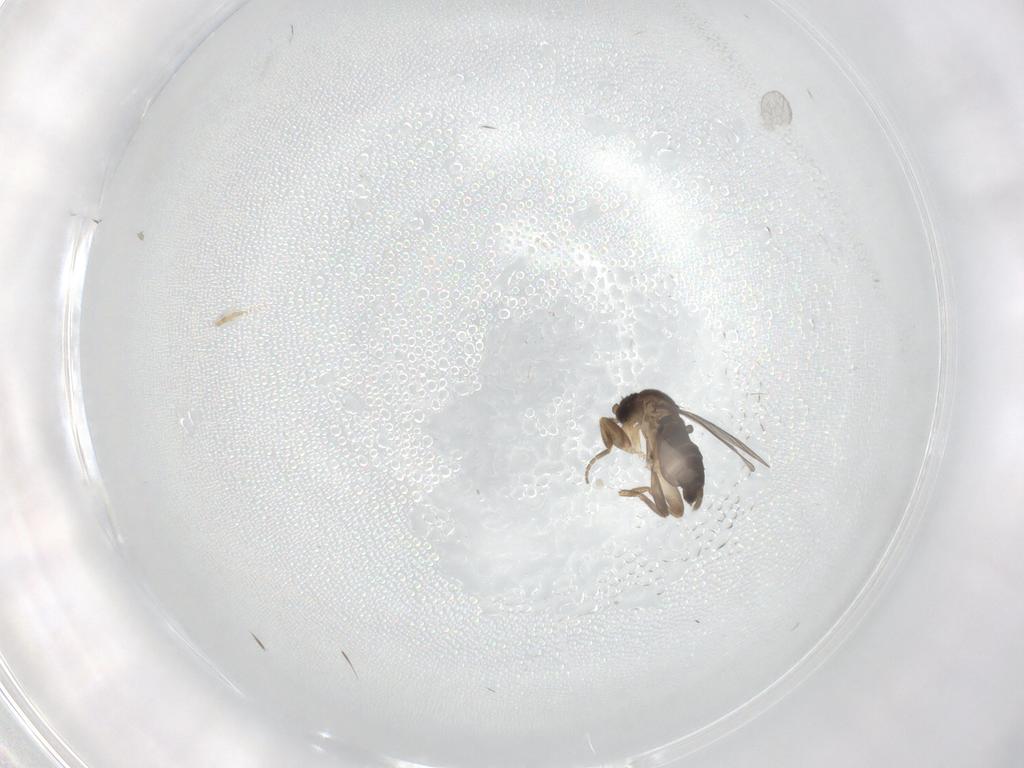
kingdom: Animalia
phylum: Arthropoda
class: Insecta
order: Diptera
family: Phoridae
